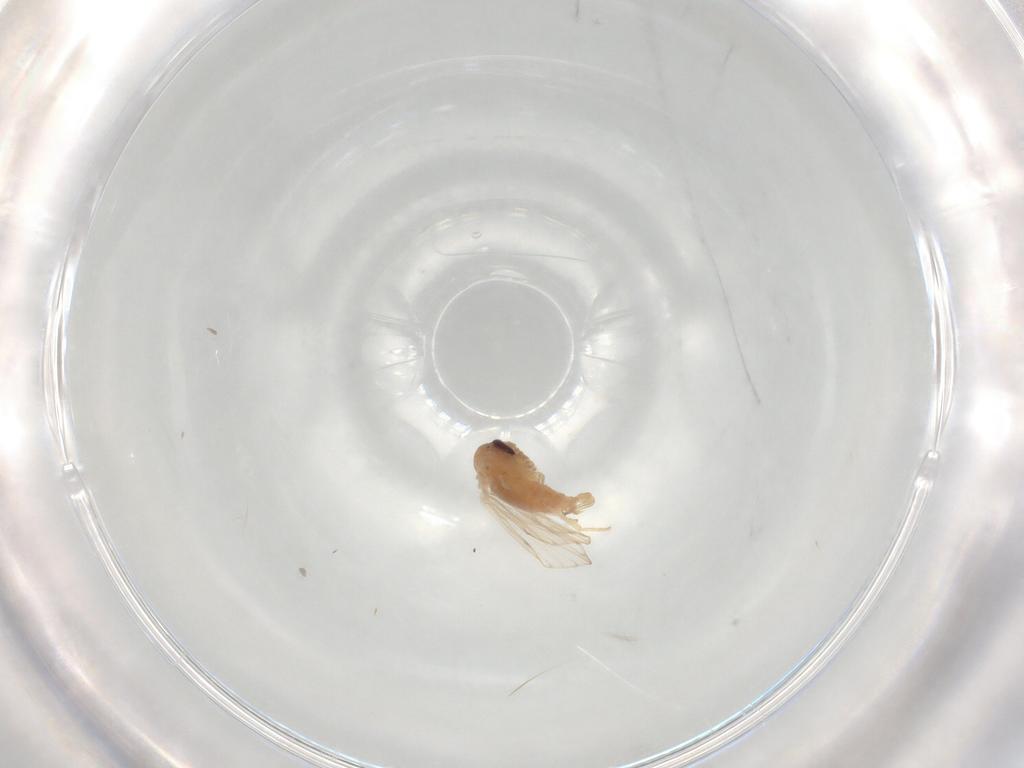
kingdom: Animalia
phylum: Arthropoda
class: Insecta
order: Diptera
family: Psychodidae
